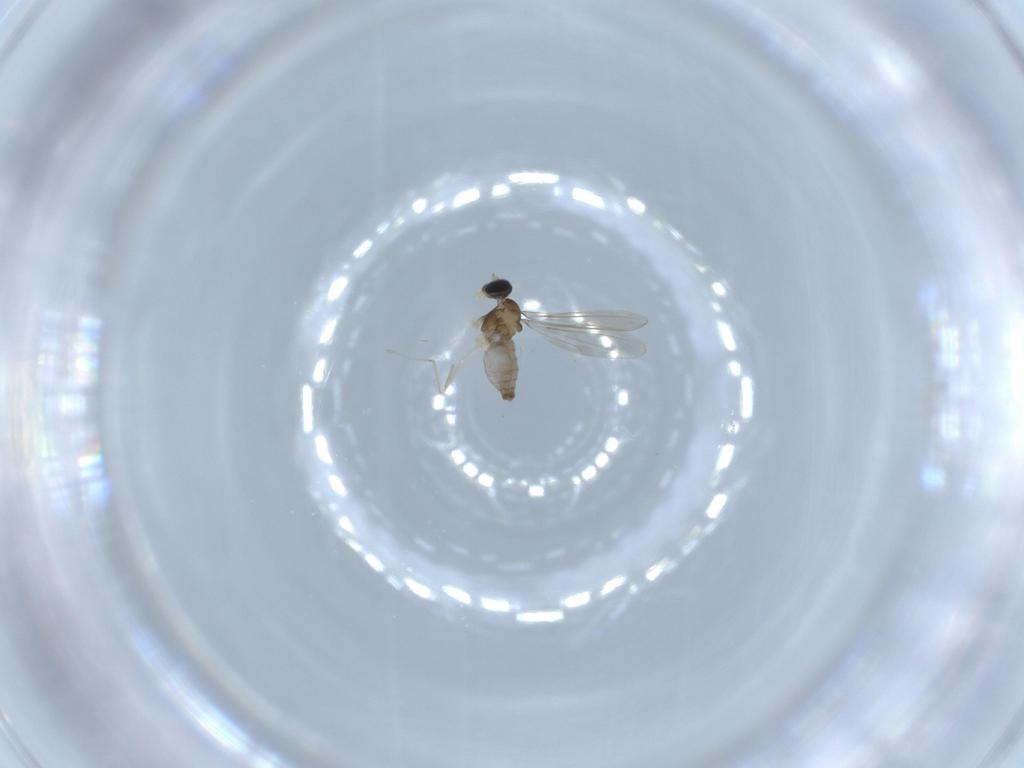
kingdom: Animalia
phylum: Arthropoda
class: Insecta
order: Diptera
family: Cecidomyiidae
